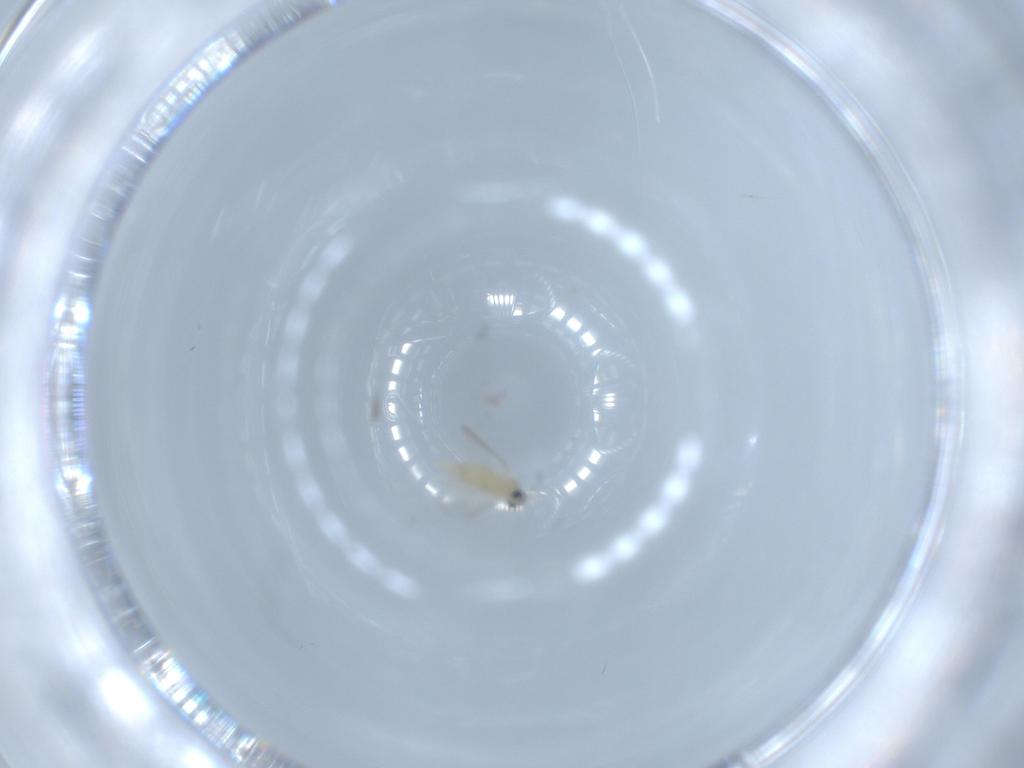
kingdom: Animalia
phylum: Arthropoda
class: Insecta
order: Diptera
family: Cecidomyiidae
